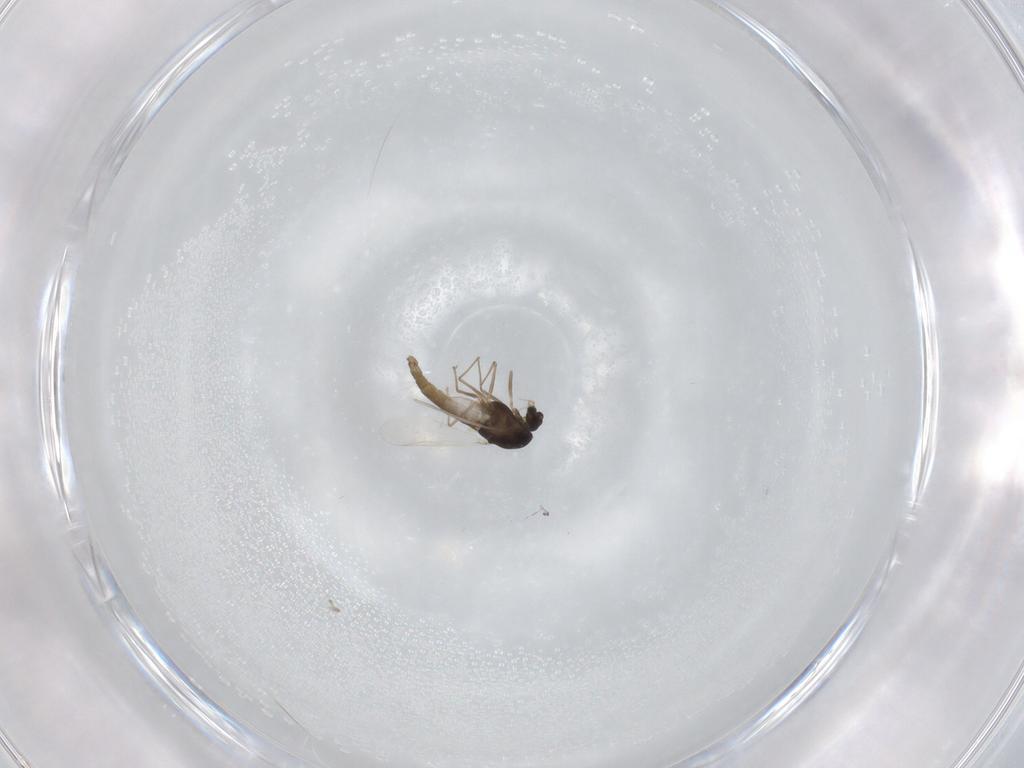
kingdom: Animalia
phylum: Arthropoda
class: Insecta
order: Diptera
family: Chironomidae
